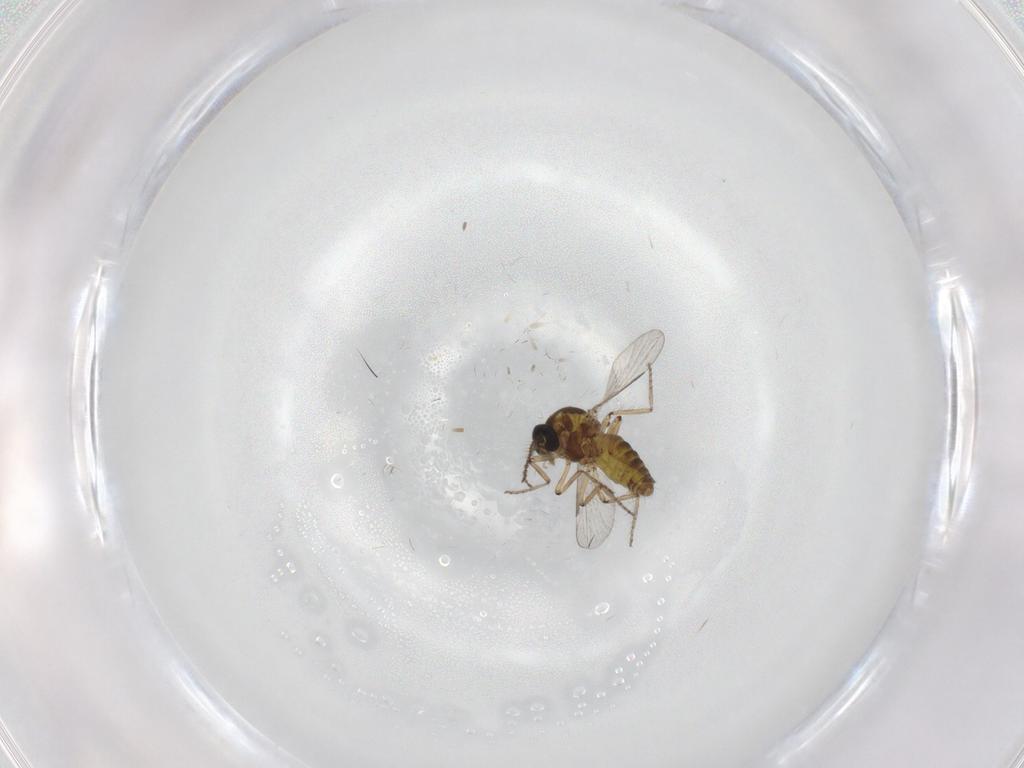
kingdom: Animalia
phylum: Arthropoda
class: Insecta
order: Diptera
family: Ceratopogonidae
